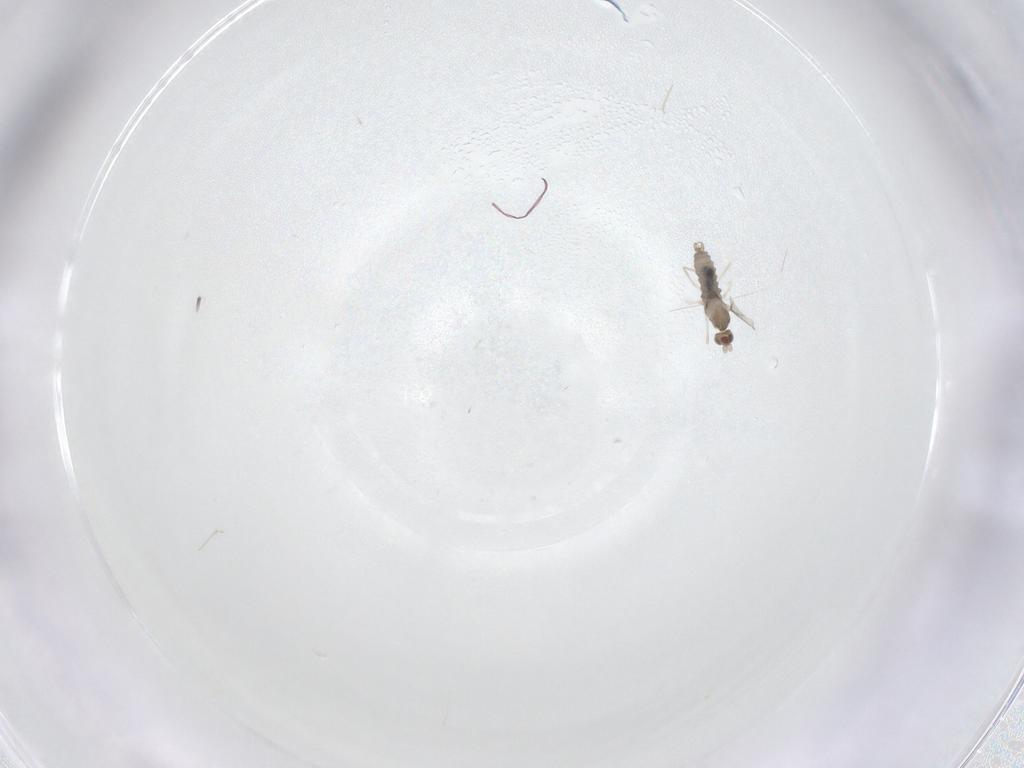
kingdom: Animalia
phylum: Arthropoda
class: Insecta
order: Diptera
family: Cecidomyiidae
